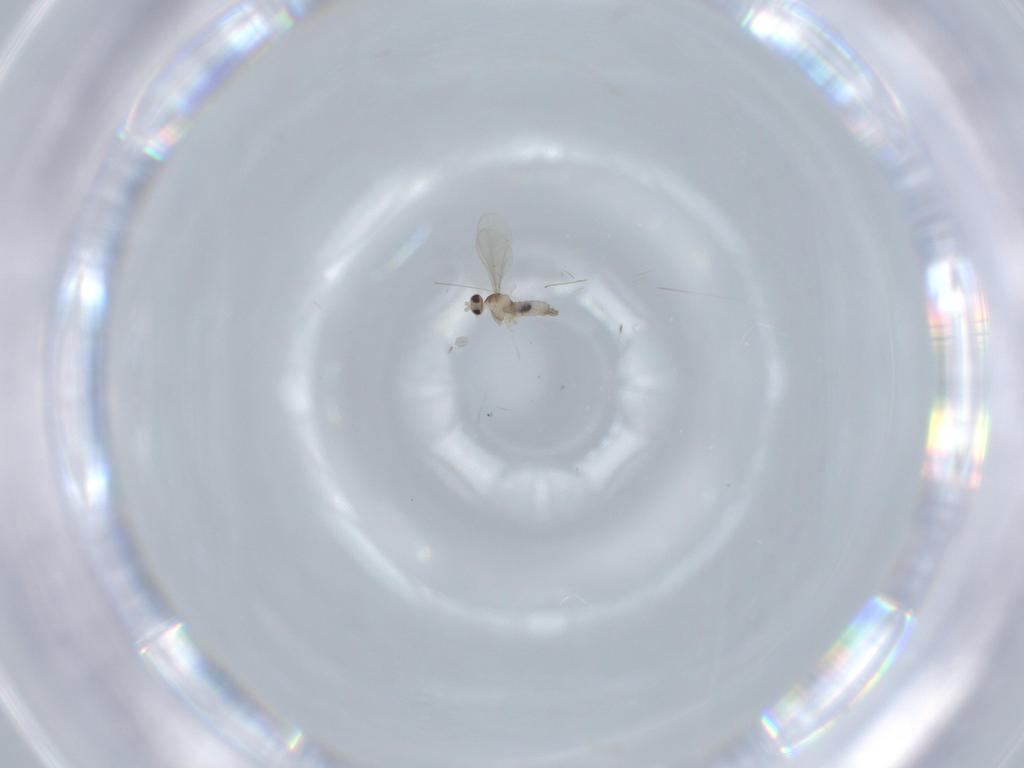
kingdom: Animalia
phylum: Arthropoda
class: Insecta
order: Diptera
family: Cecidomyiidae
